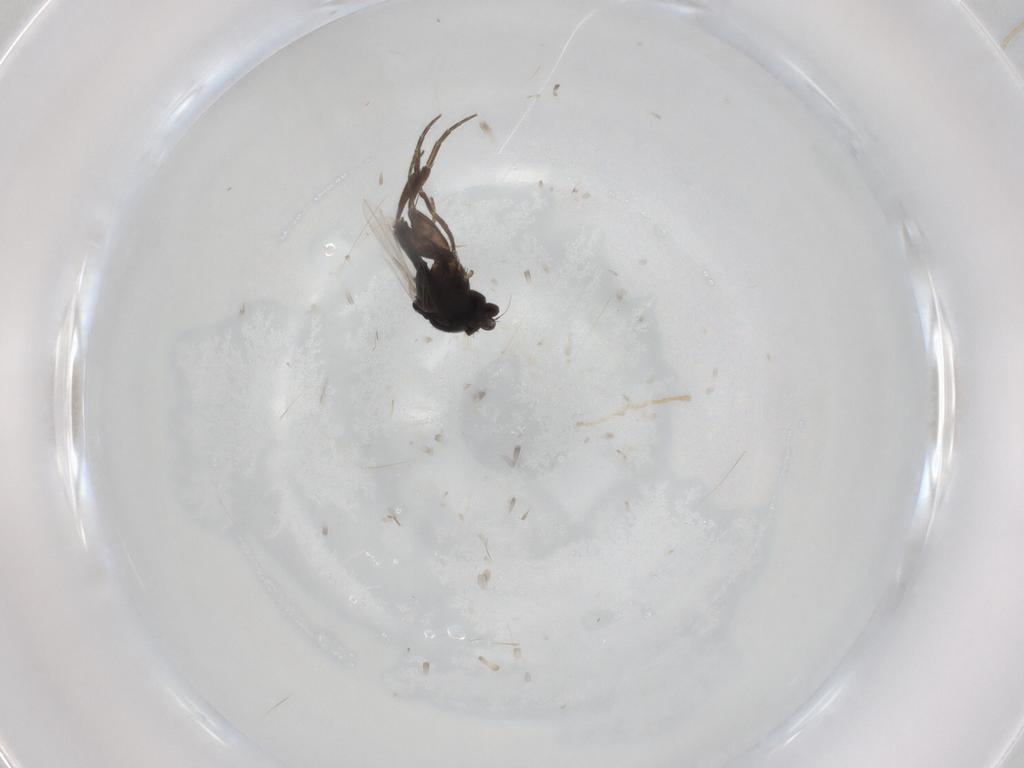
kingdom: Animalia
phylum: Arthropoda
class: Insecta
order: Diptera
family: Phoridae
